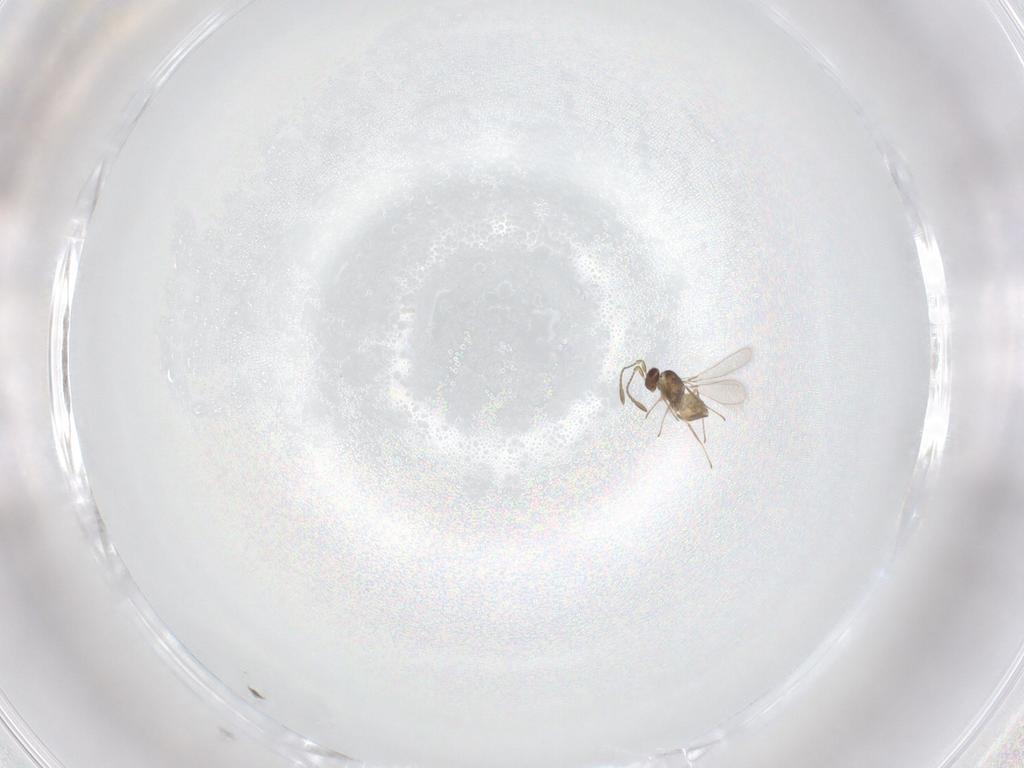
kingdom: Animalia
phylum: Arthropoda
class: Insecta
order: Hymenoptera
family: Mymaridae
